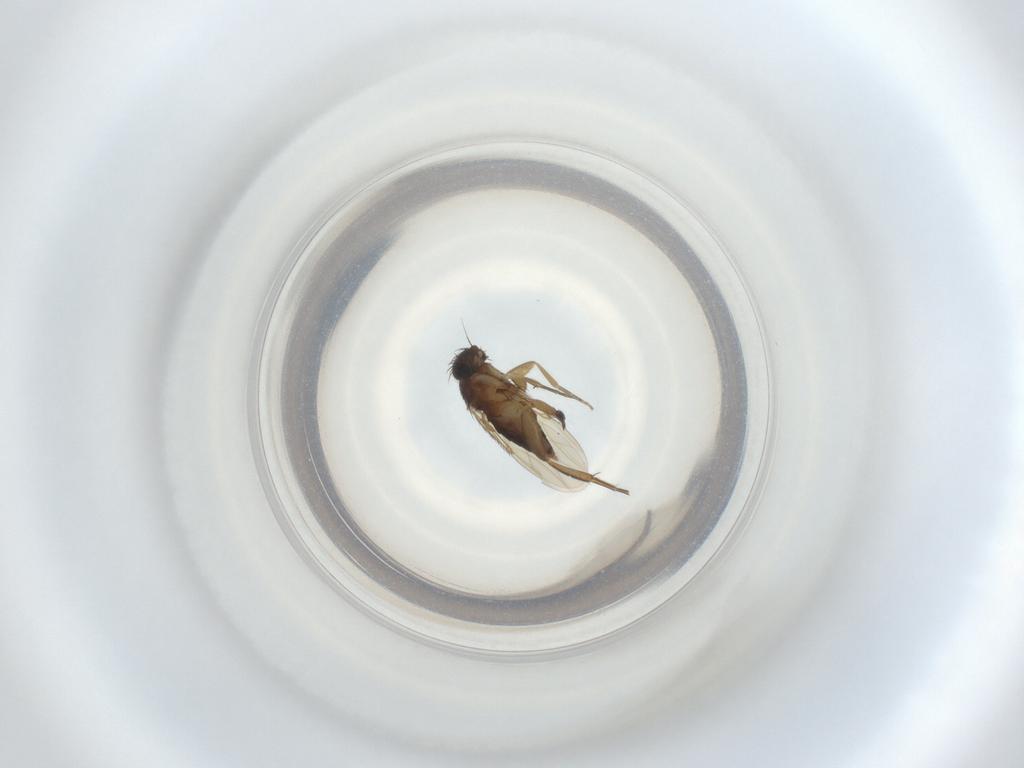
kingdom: Animalia
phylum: Arthropoda
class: Insecta
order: Diptera
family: Phoridae
